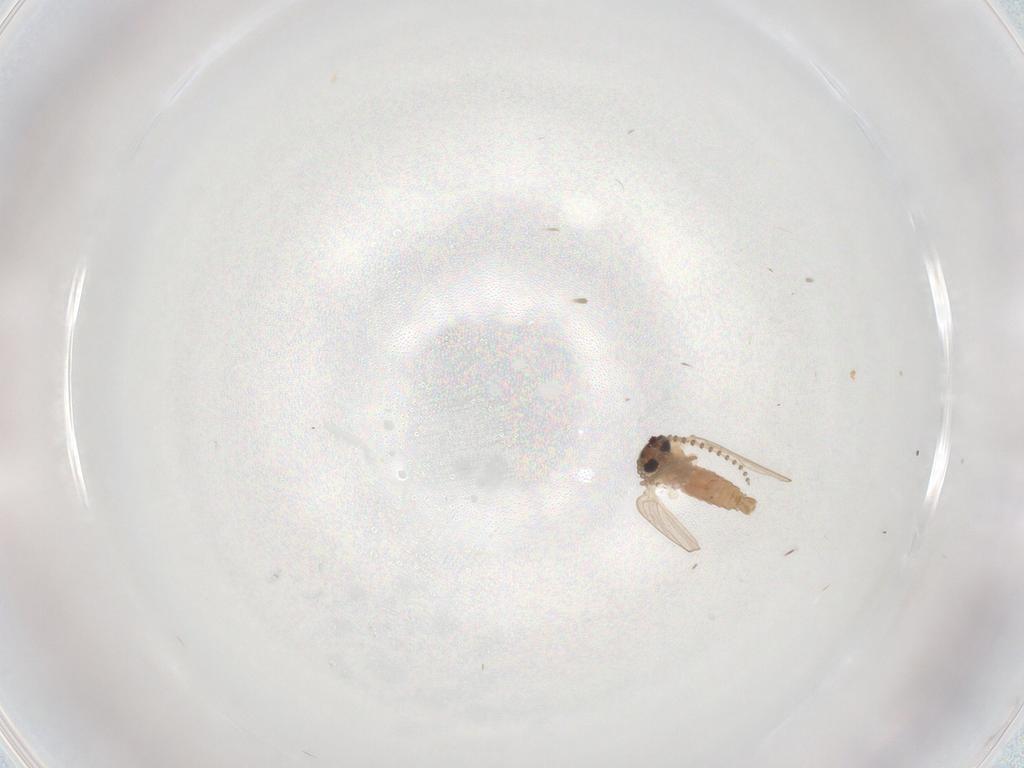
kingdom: Animalia
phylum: Arthropoda
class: Insecta
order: Diptera
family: Psychodidae
